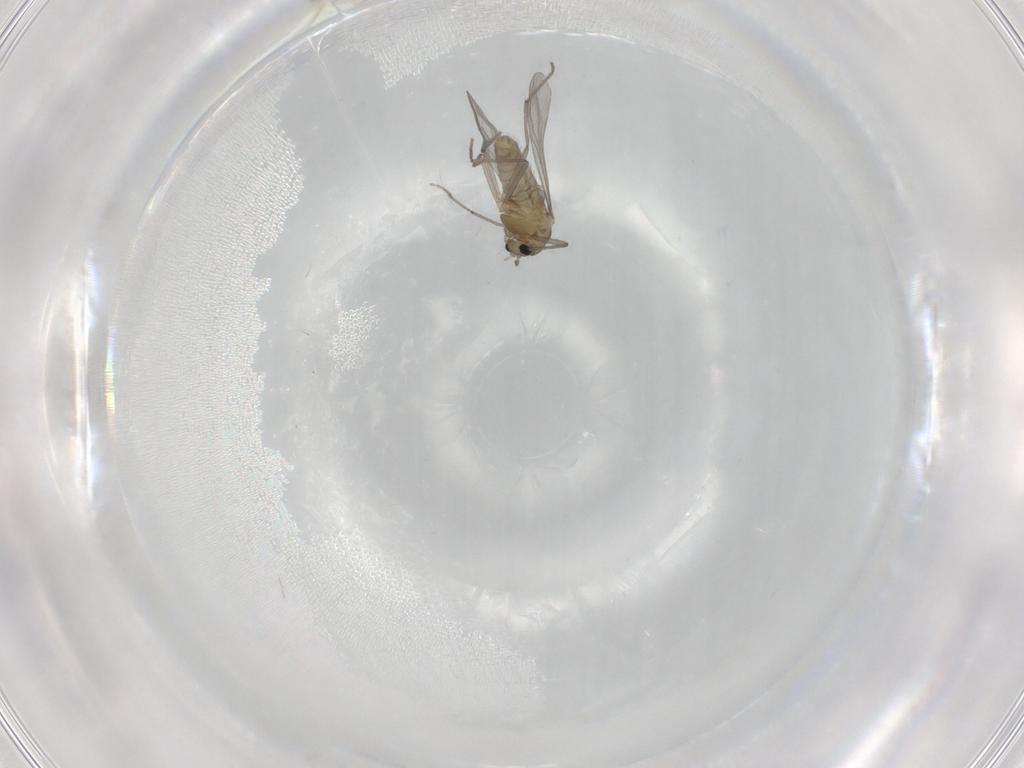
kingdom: Animalia
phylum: Arthropoda
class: Insecta
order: Diptera
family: Chironomidae
